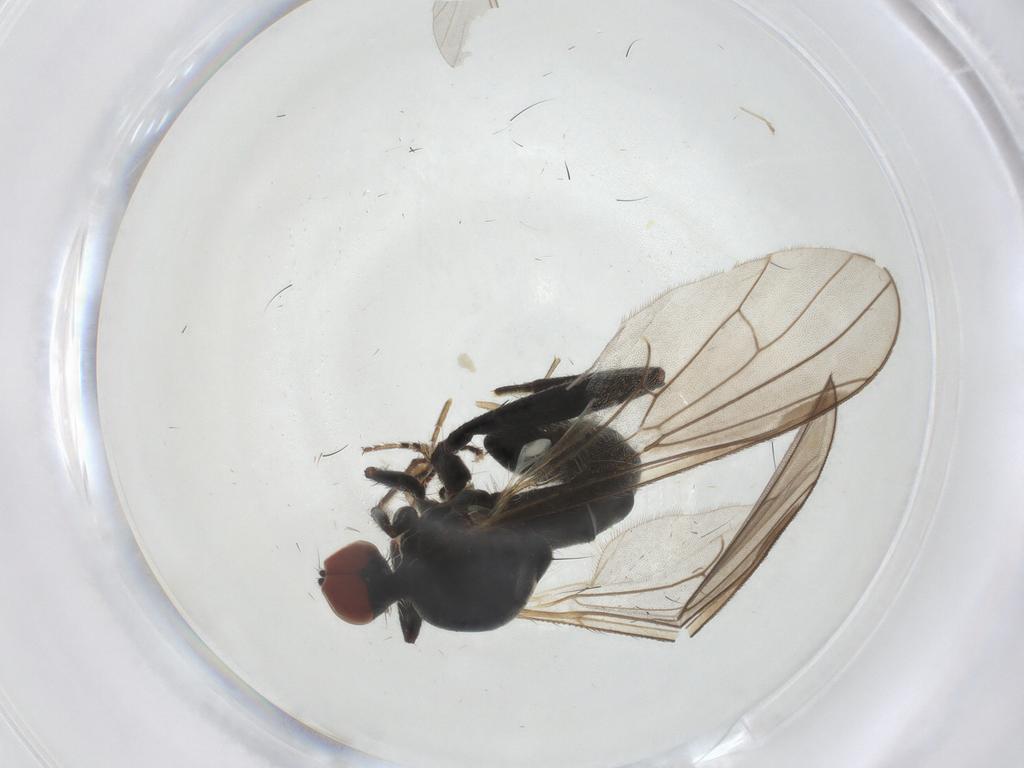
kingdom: Animalia
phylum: Arthropoda
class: Insecta
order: Diptera
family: Hybotidae
